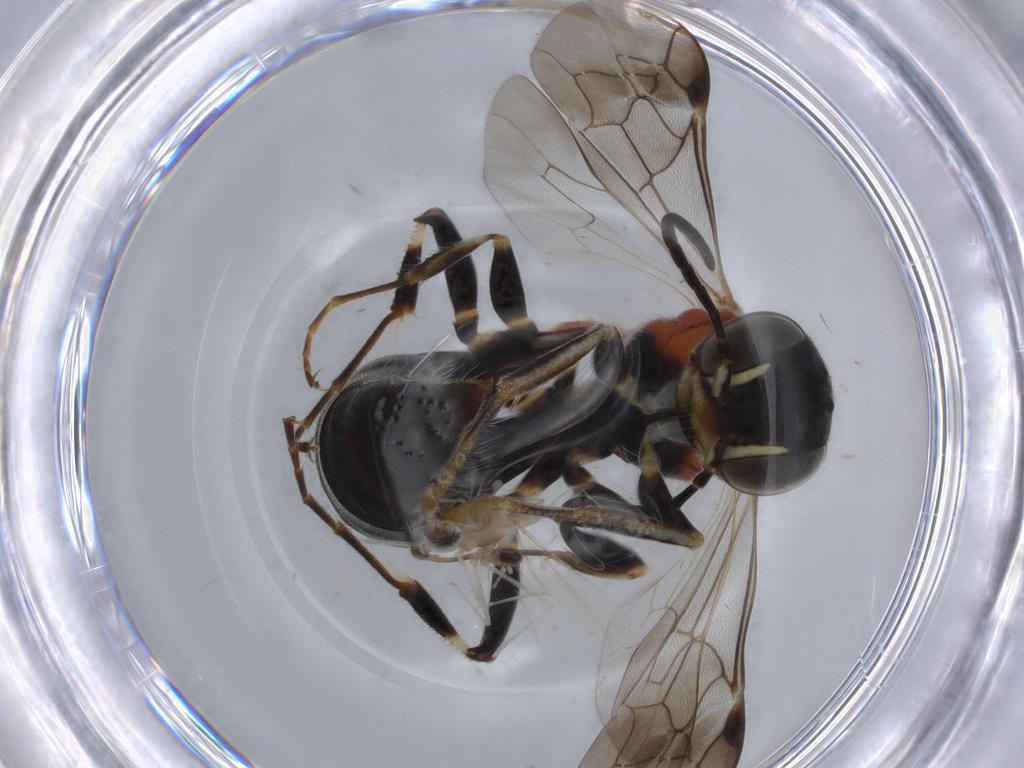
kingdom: Animalia
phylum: Arthropoda
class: Insecta
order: Hymenoptera
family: Bembicidae
